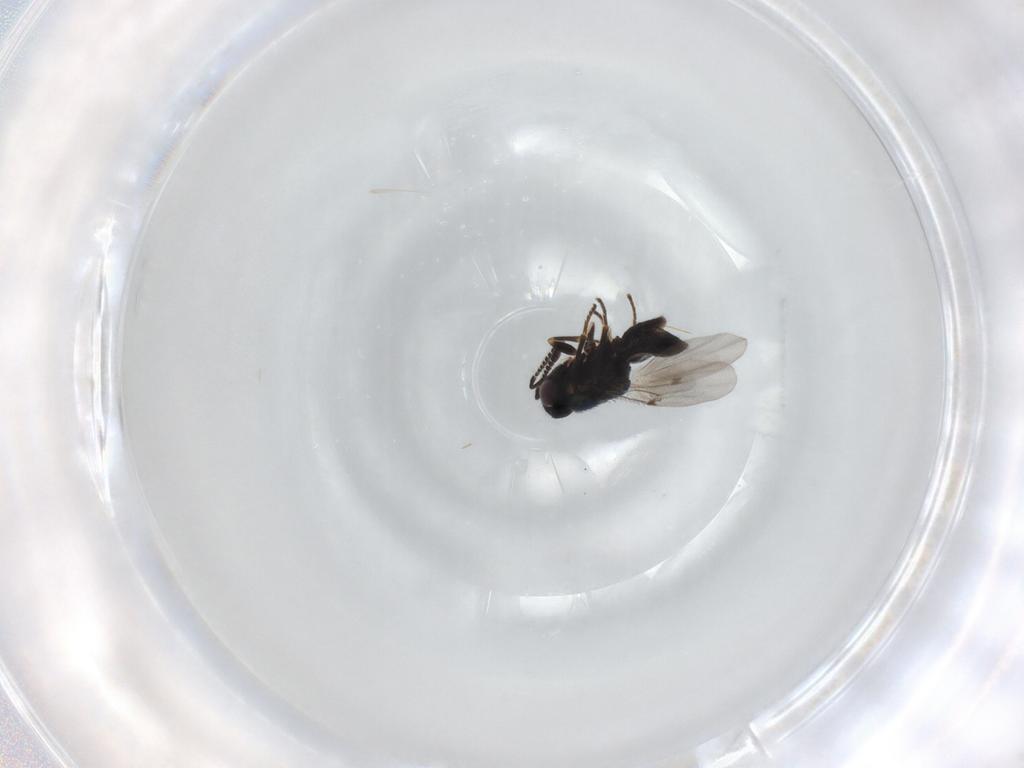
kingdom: Animalia
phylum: Arthropoda
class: Insecta
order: Hymenoptera
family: Encyrtidae
